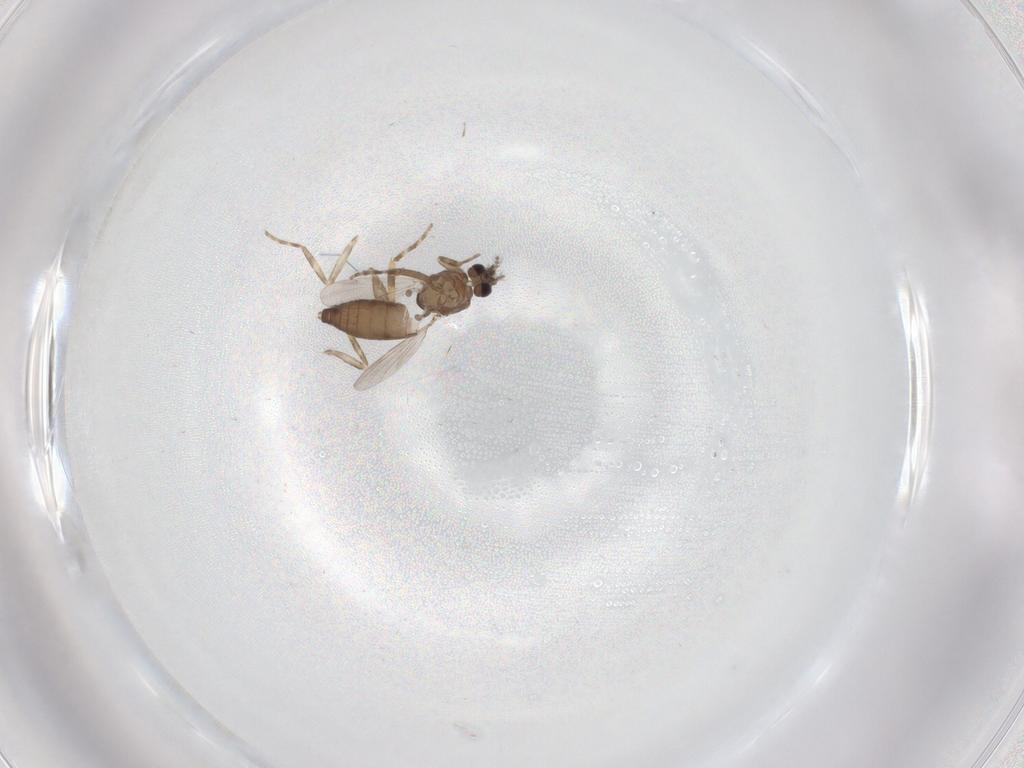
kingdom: Animalia
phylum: Arthropoda
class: Insecta
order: Diptera
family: Ceratopogonidae
